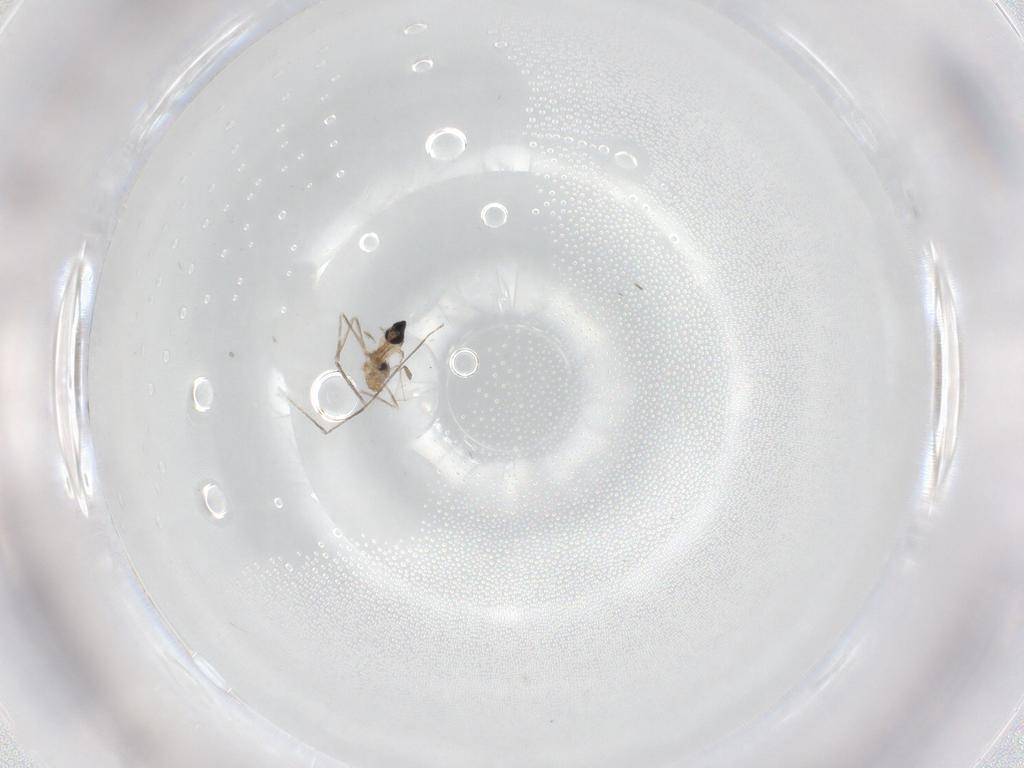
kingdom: Animalia
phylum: Arthropoda
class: Insecta
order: Diptera
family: Cecidomyiidae
